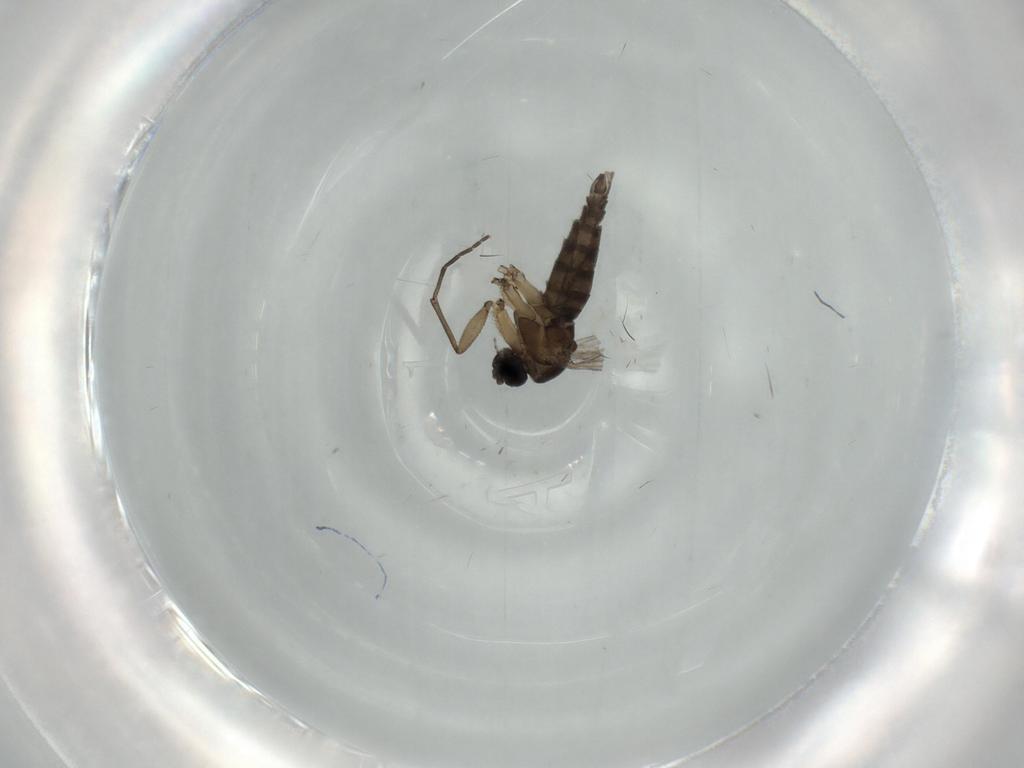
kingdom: Animalia
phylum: Arthropoda
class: Insecta
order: Diptera
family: Sciaridae
